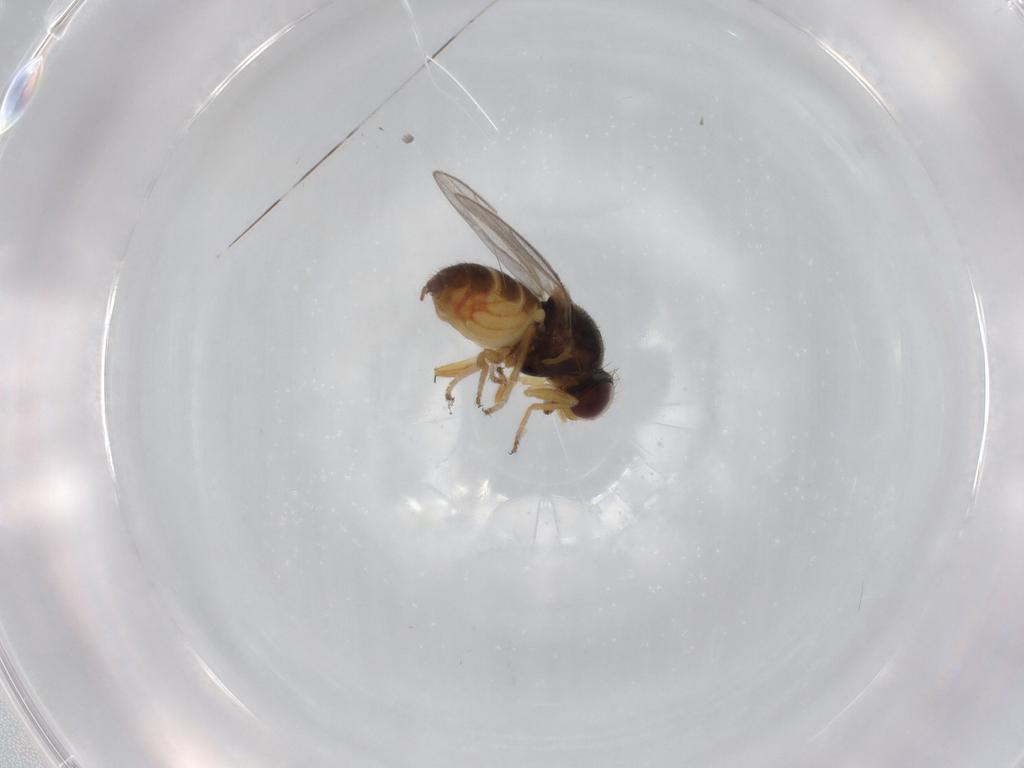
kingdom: Animalia
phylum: Arthropoda
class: Insecta
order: Diptera
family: Chloropidae
